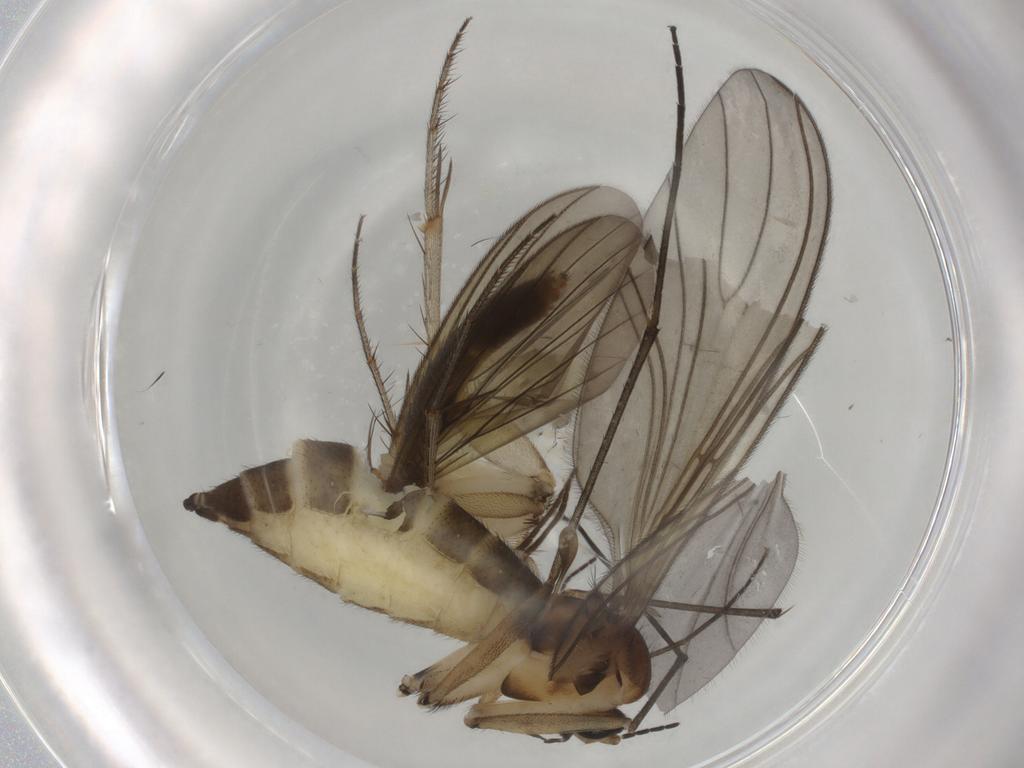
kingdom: Animalia
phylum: Arthropoda
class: Insecta
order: Diptera
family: Sciaridae
